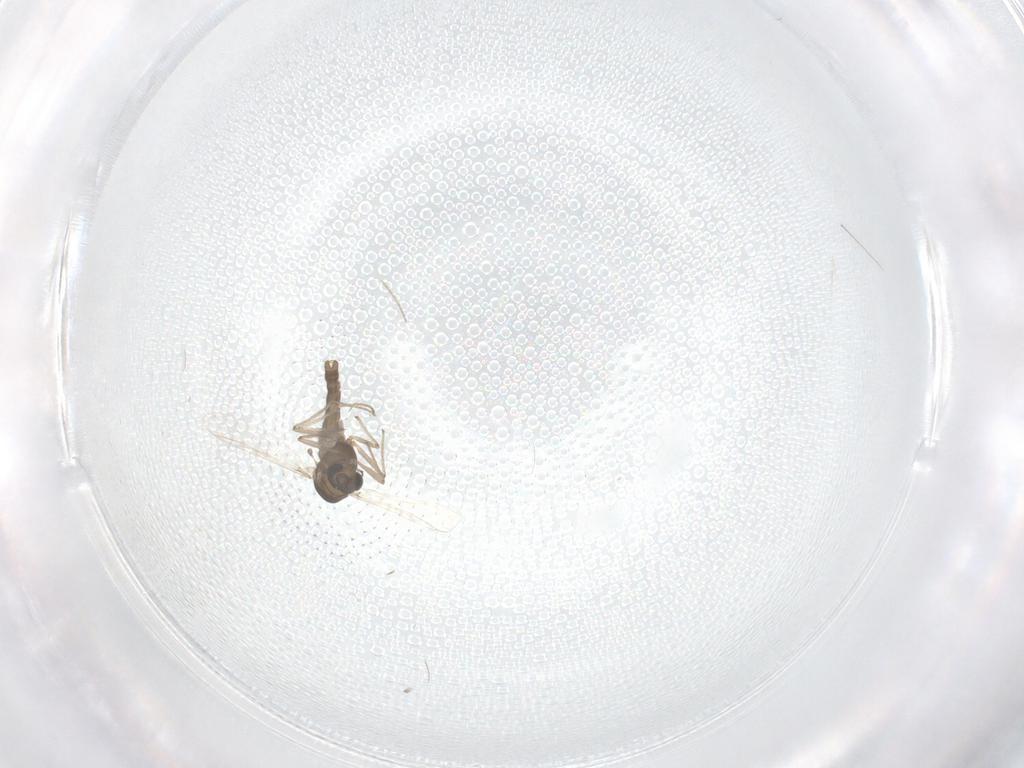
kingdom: Animalia
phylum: Arthropoda
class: Insecta
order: Diptera
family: Chironomidae
